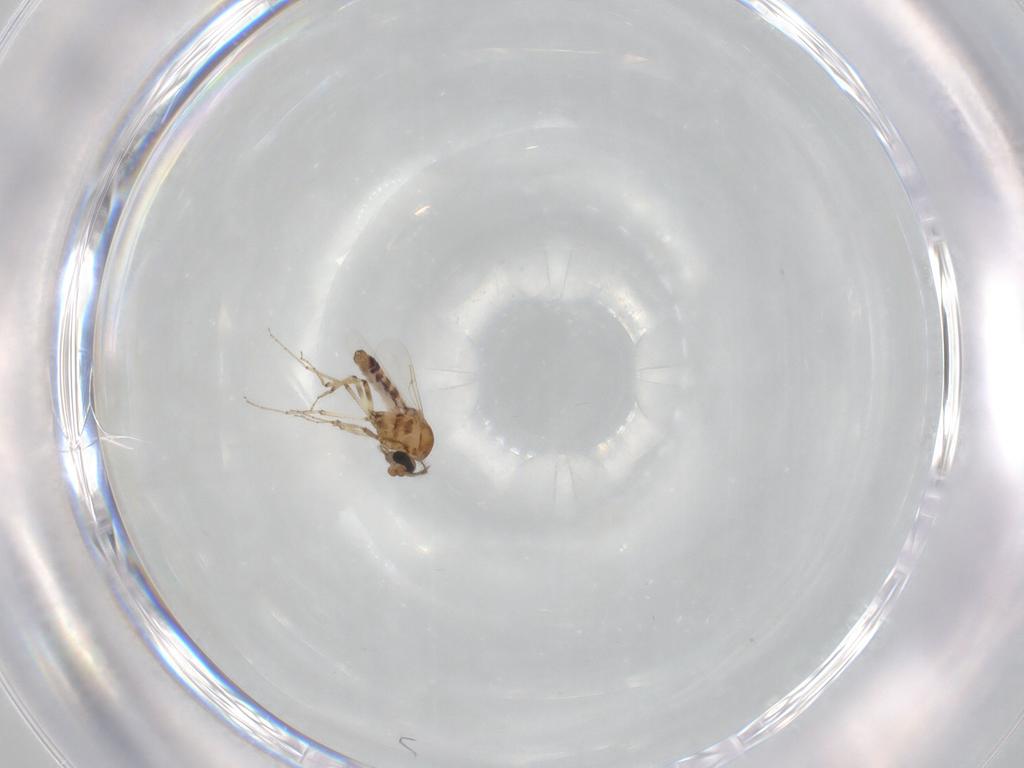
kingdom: Animalia
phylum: Arthropoda
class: Insecta
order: Diptera
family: Ceratopogonidae
